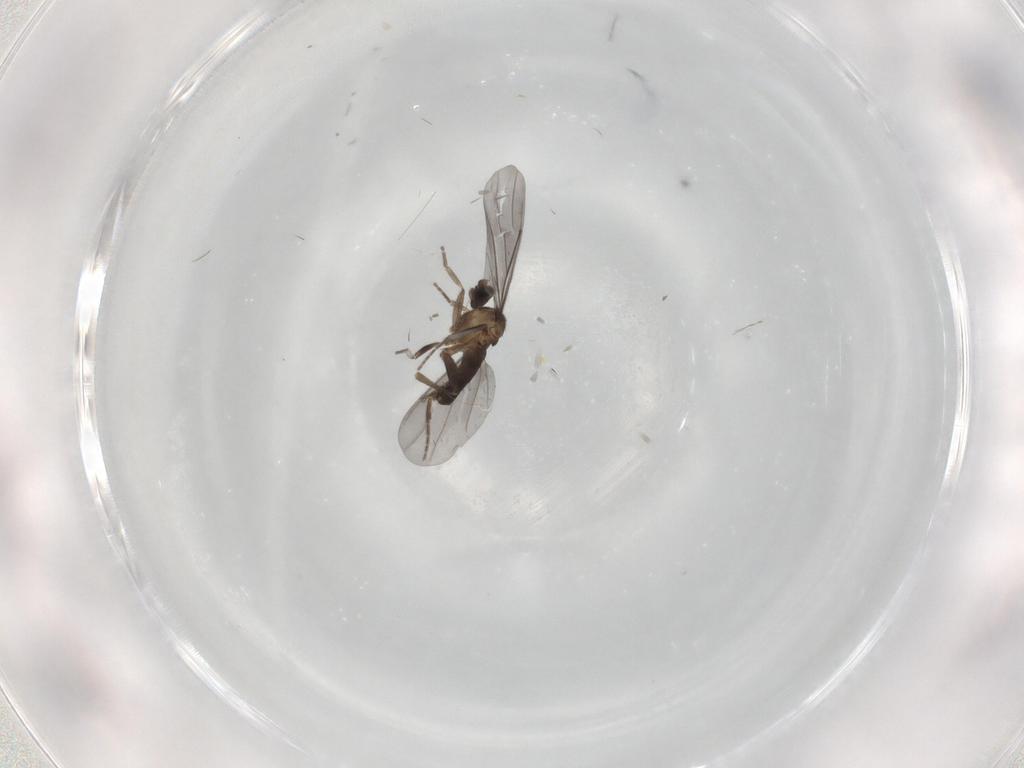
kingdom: Animalia
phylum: Arthropoda
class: Insecta
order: Diptera
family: Phoridae
